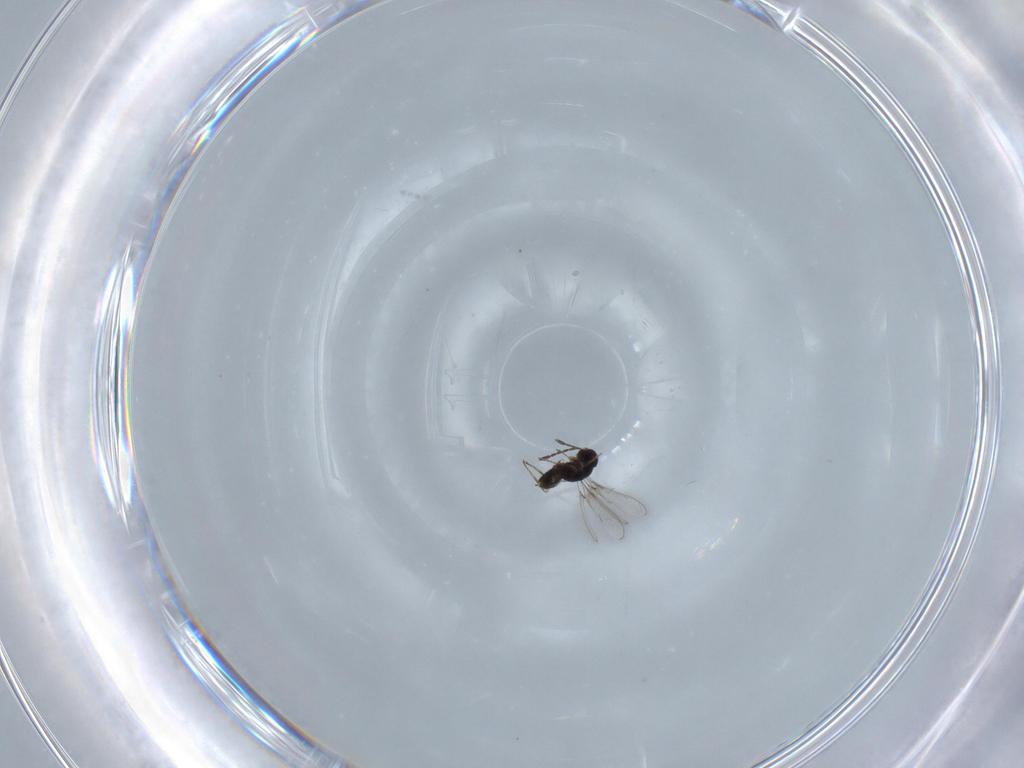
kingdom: Animalia
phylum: Arthropoda
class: Insecta
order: Hymenoptera
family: Mymaridae
